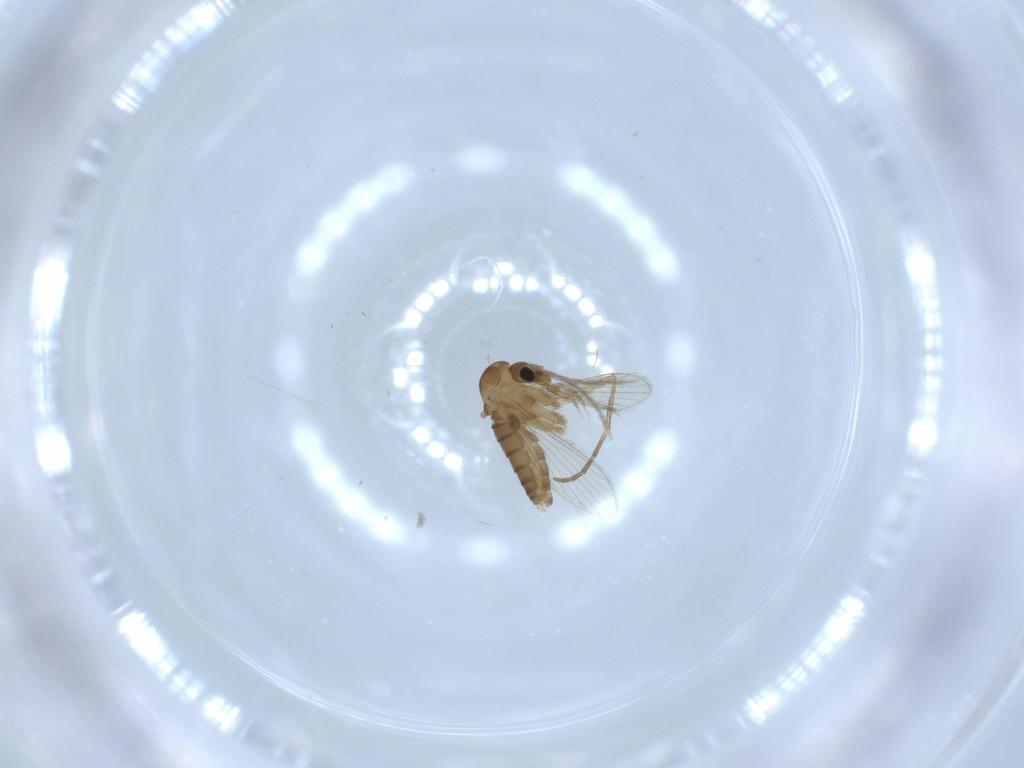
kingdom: Animalia
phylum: Arthropoda
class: Insecta
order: Diptera
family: Psychodidae
